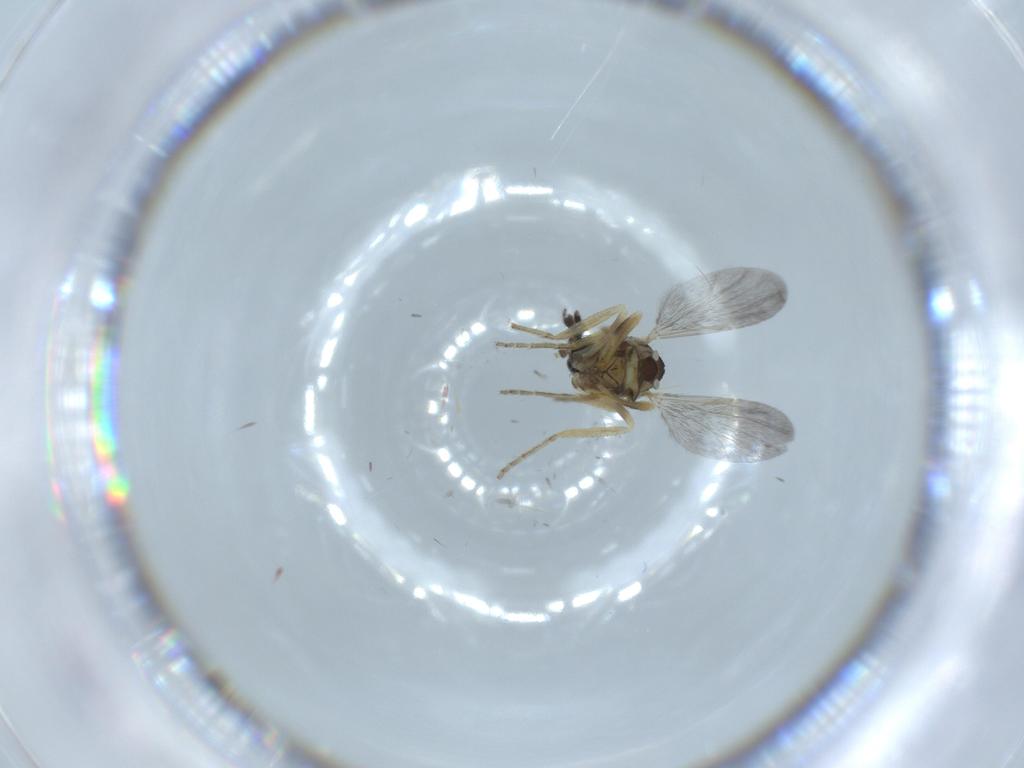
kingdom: Animalia
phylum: Arthropoda
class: Insecta
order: Diptera
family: Ceratopogonidae
